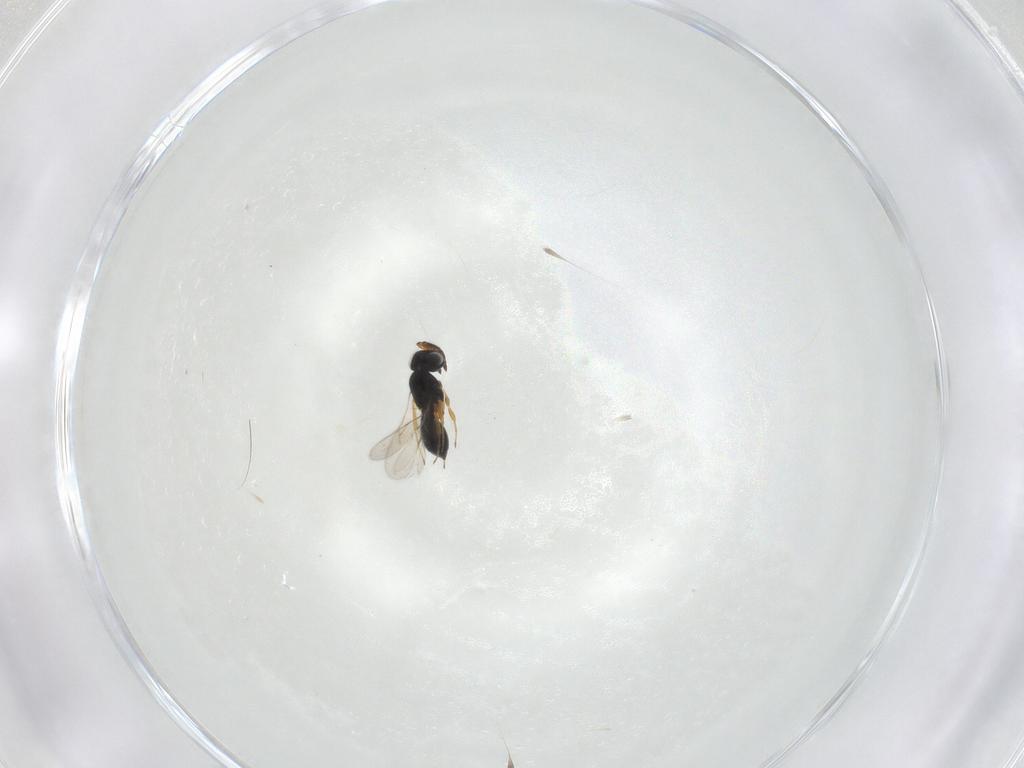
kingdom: Animalia
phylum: Arthropoda
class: Insecta
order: Hymenoptera
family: Scelionidae
